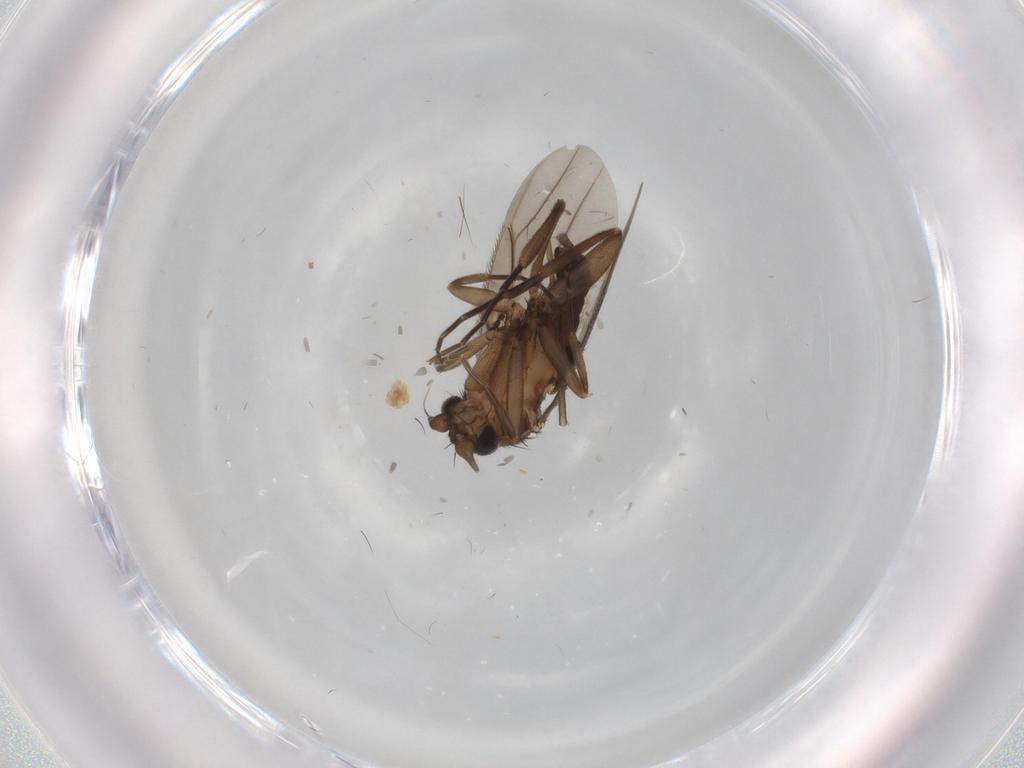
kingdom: Animalia
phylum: Arthropoda
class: Insecta
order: Diptera
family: Phoridae
